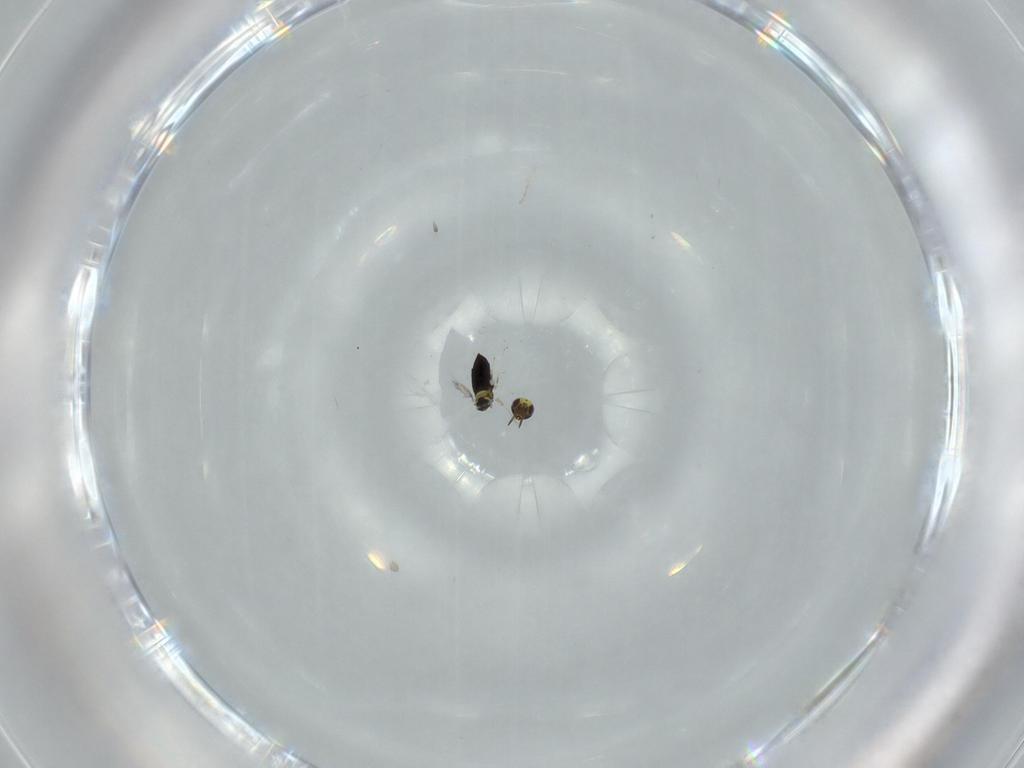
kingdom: Animalia
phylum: Arthropoda
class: Insecta
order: Hymenoptera
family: Signiphoridae
